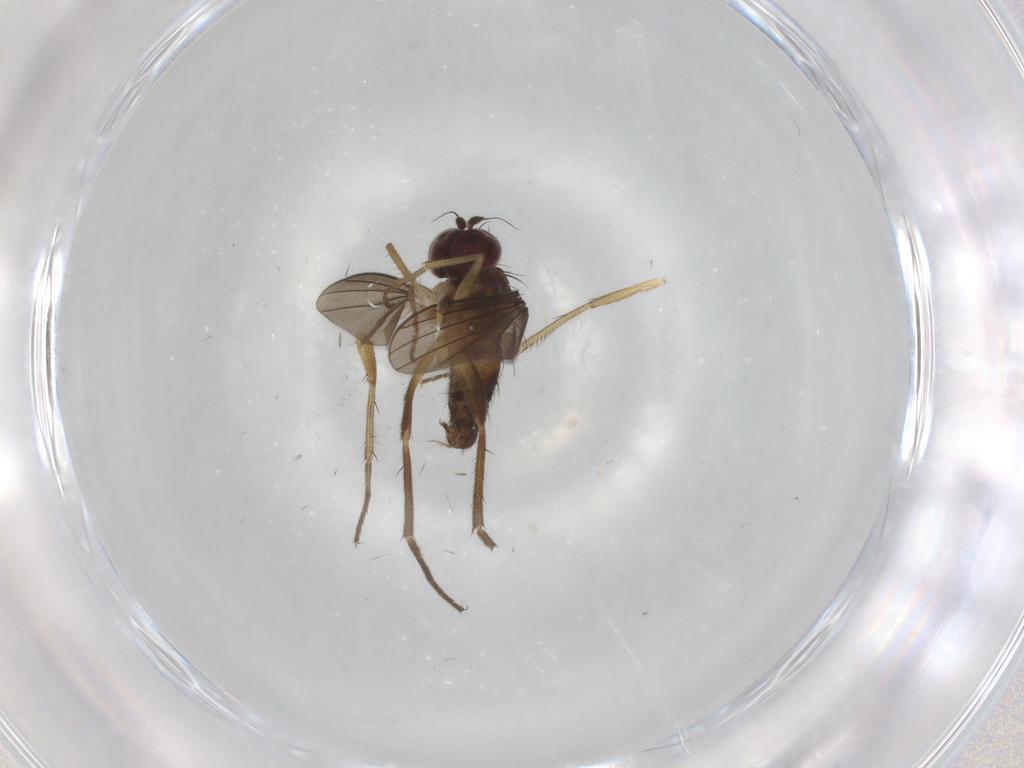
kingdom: Animalia
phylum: Arthropoda
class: Insecta
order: Diptera
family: Dolichopodidae
